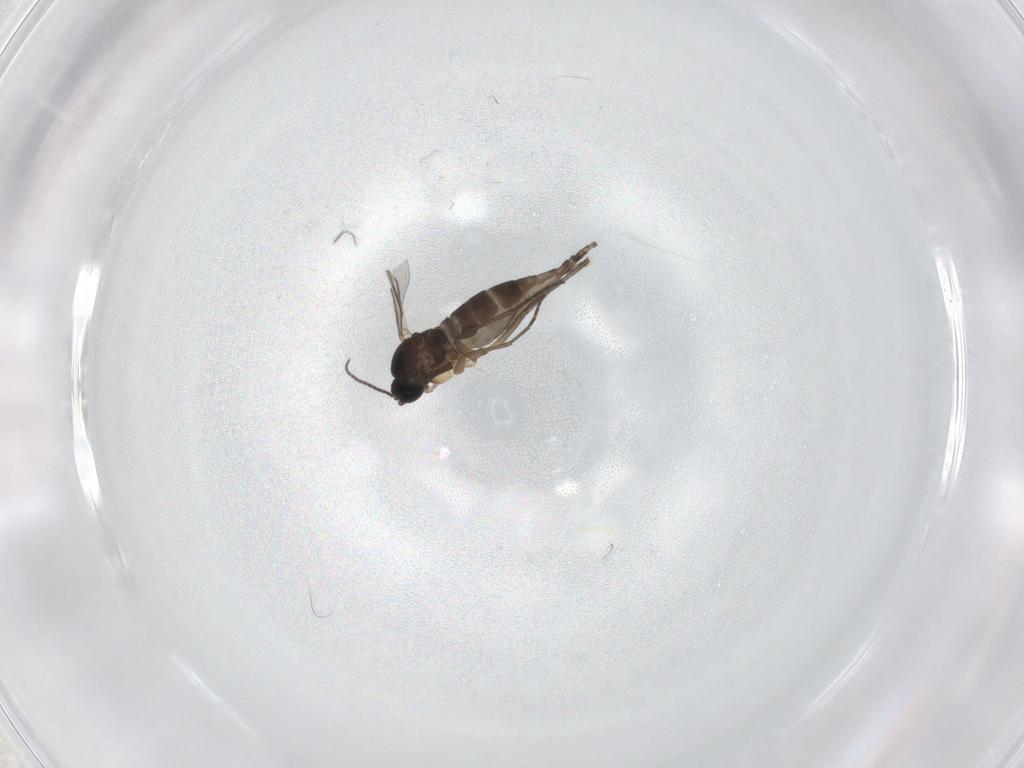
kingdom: Animalia
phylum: Arthropoda
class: Insecta
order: Diptera
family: Sciaridae
